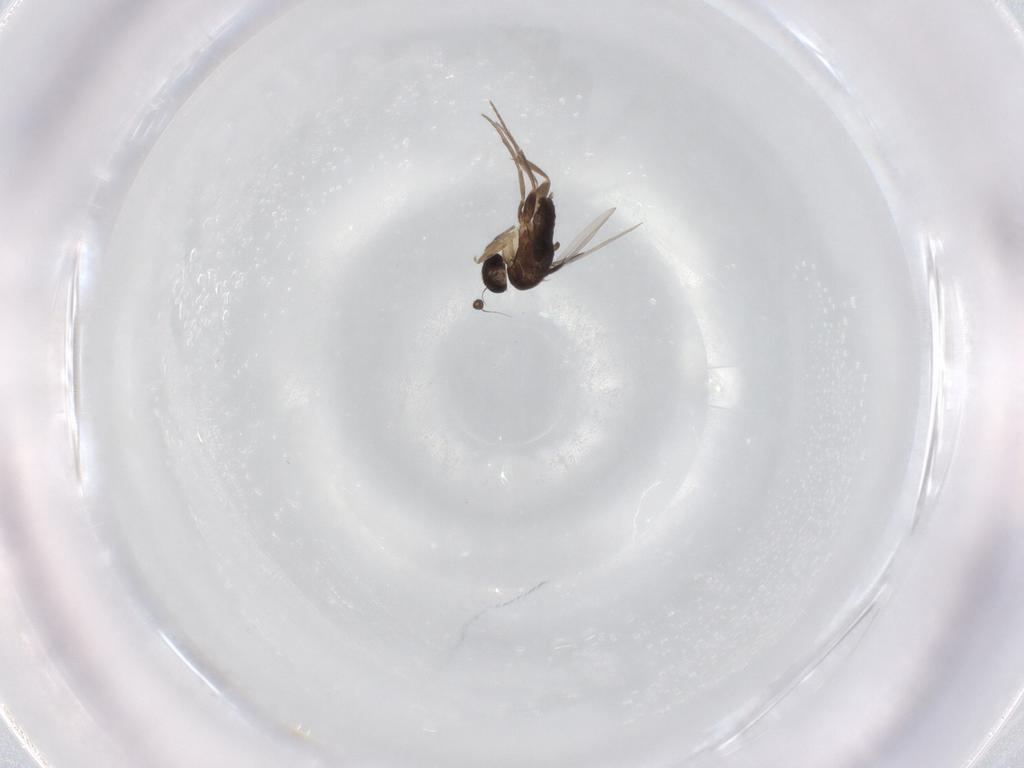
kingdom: Animalia
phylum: Arthropoda
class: Insecta
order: Diptera
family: Phoridae
